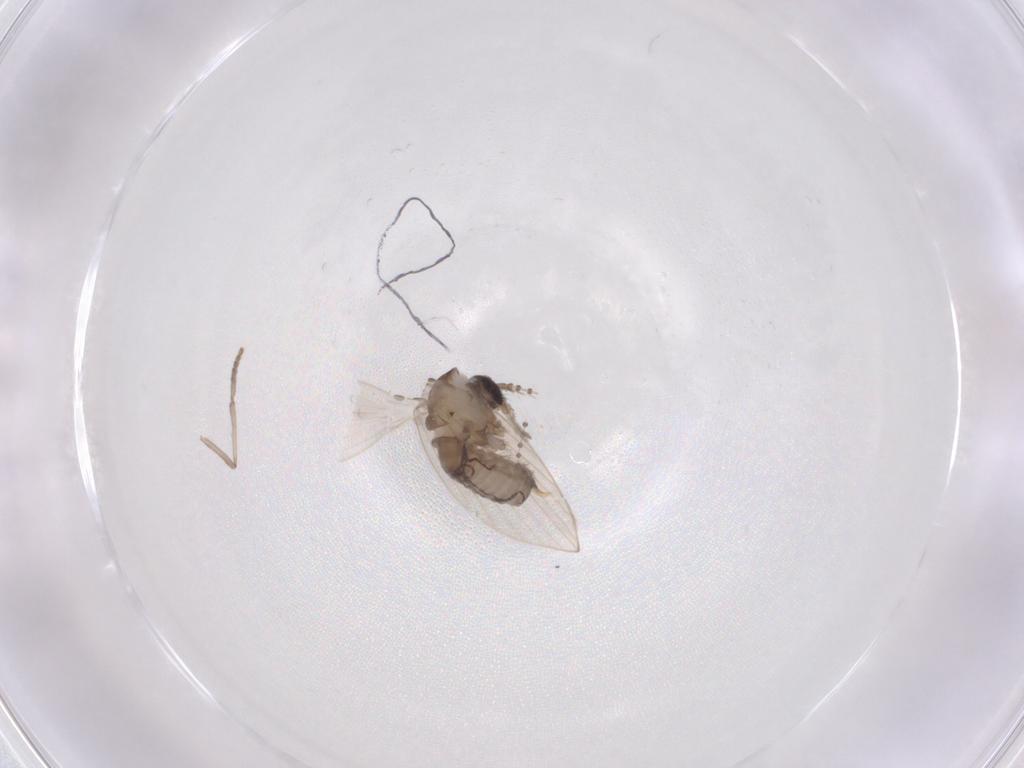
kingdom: Animalia
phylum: Arthropoda
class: Insecta
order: Diptera
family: Psychodidae
